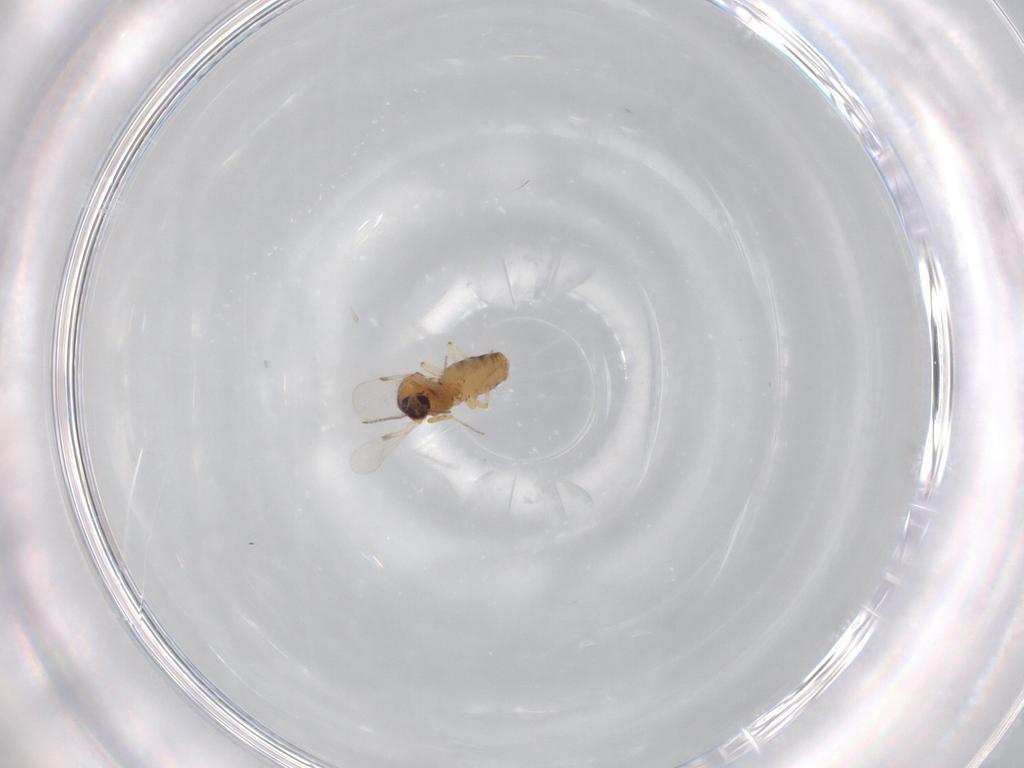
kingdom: Animalia
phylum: Arthropoda
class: Insecta
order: Diptera
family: Ceratopogonidae
